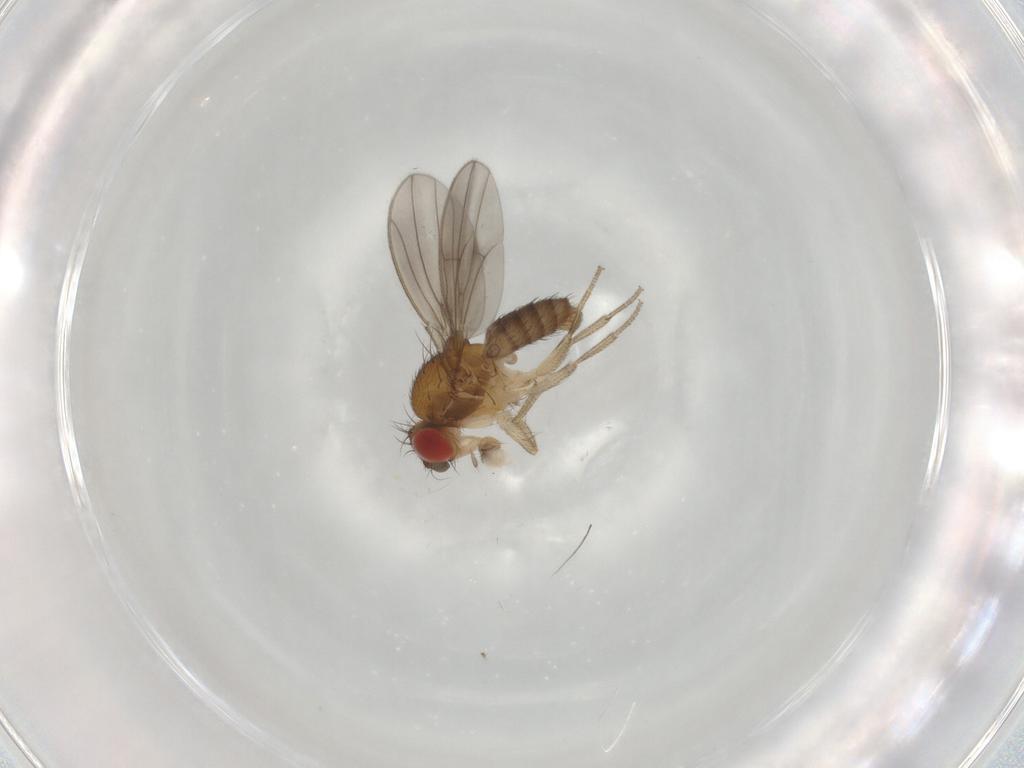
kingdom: Animalia
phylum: Arthropoda
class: Insecta
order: Diptera
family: Drosophilidae
